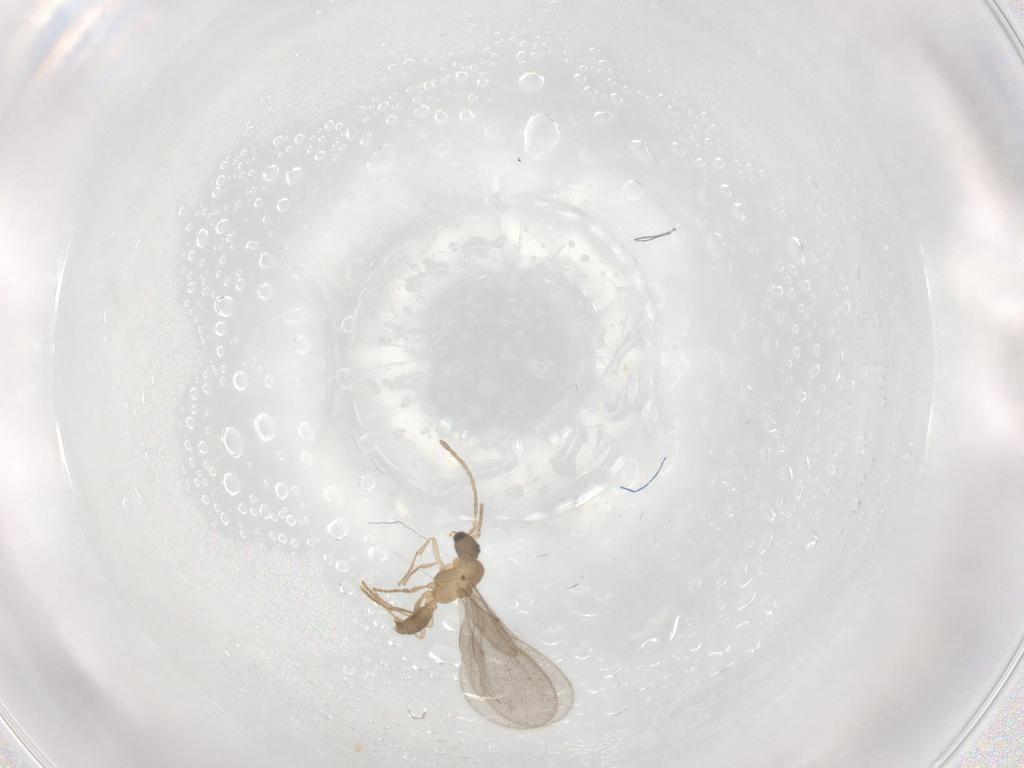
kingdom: Animalia
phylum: Arthropoda
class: Insecta
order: Hymenoptera
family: Formicidae
